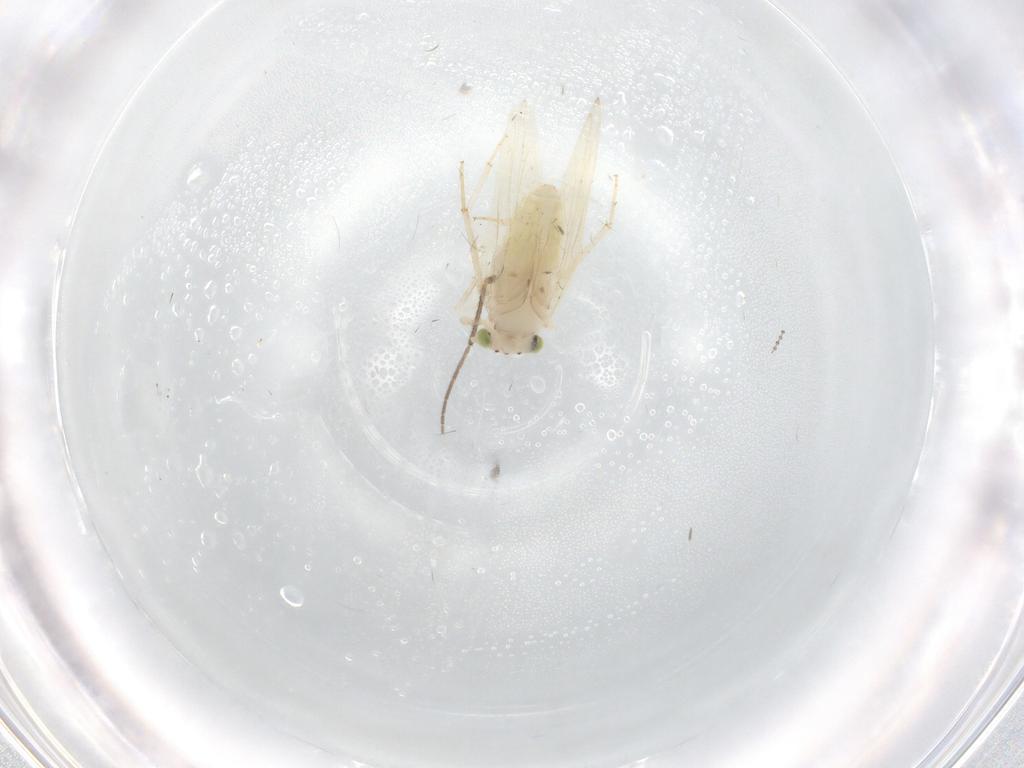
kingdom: Animalia
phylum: Arthropoda
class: Insecta
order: Psocodea
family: Lepidopsocidae
